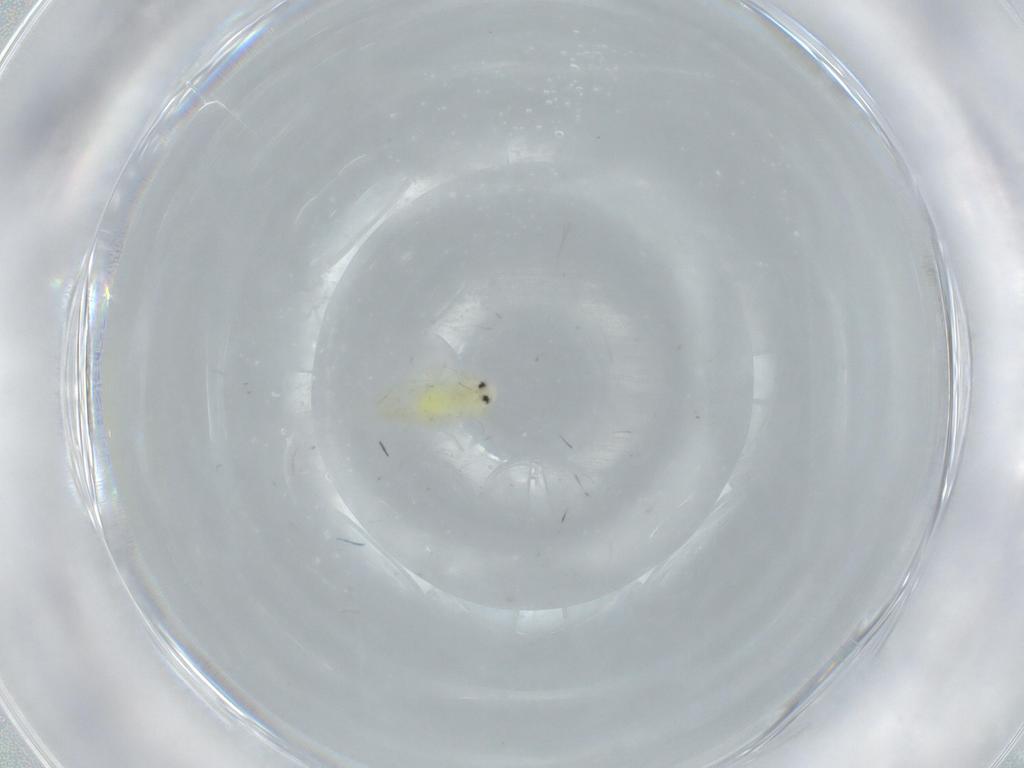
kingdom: Animalia
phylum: Arthropoda
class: Insecta
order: Hemiptera
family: Aleyrodidae
